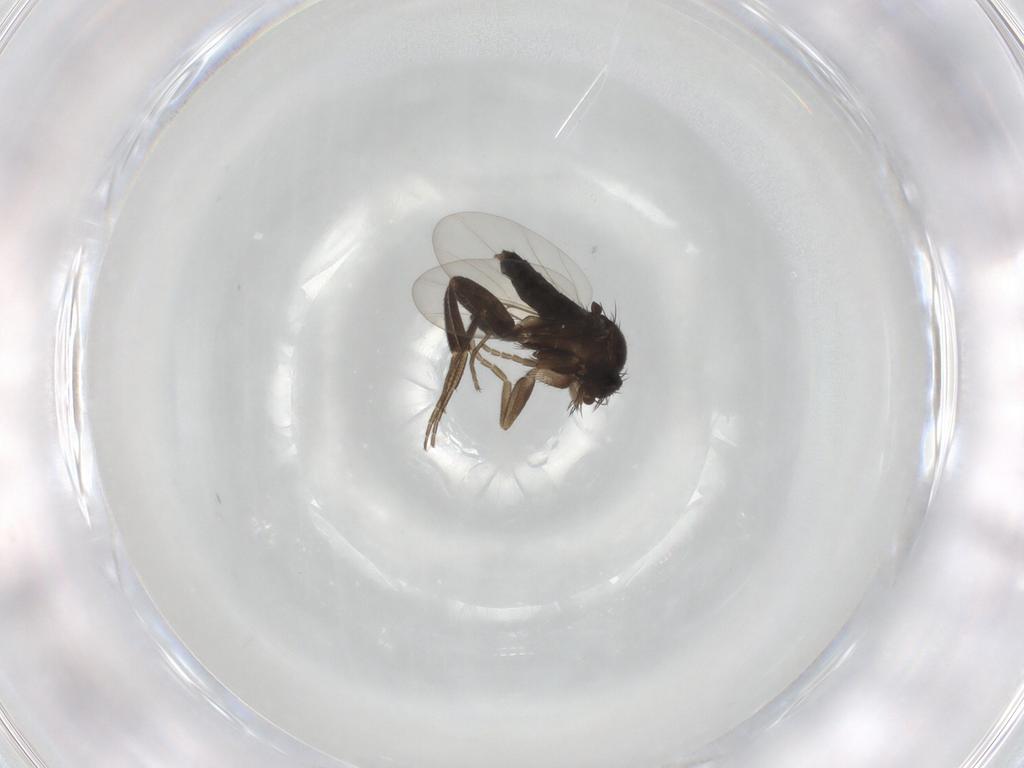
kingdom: Animalia
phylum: Arthropoda
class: Insecta
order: Diptera
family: Phoridae
